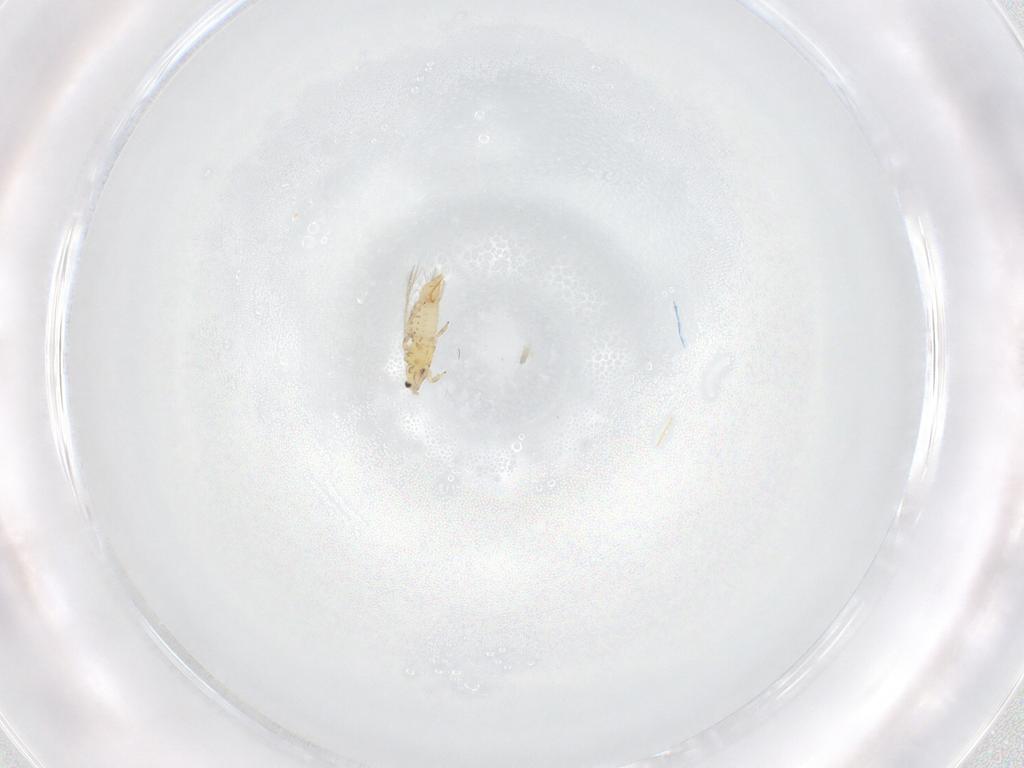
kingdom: Animalia
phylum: Arthropoda
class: Insecta
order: Thysanoptera
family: Thripidae
